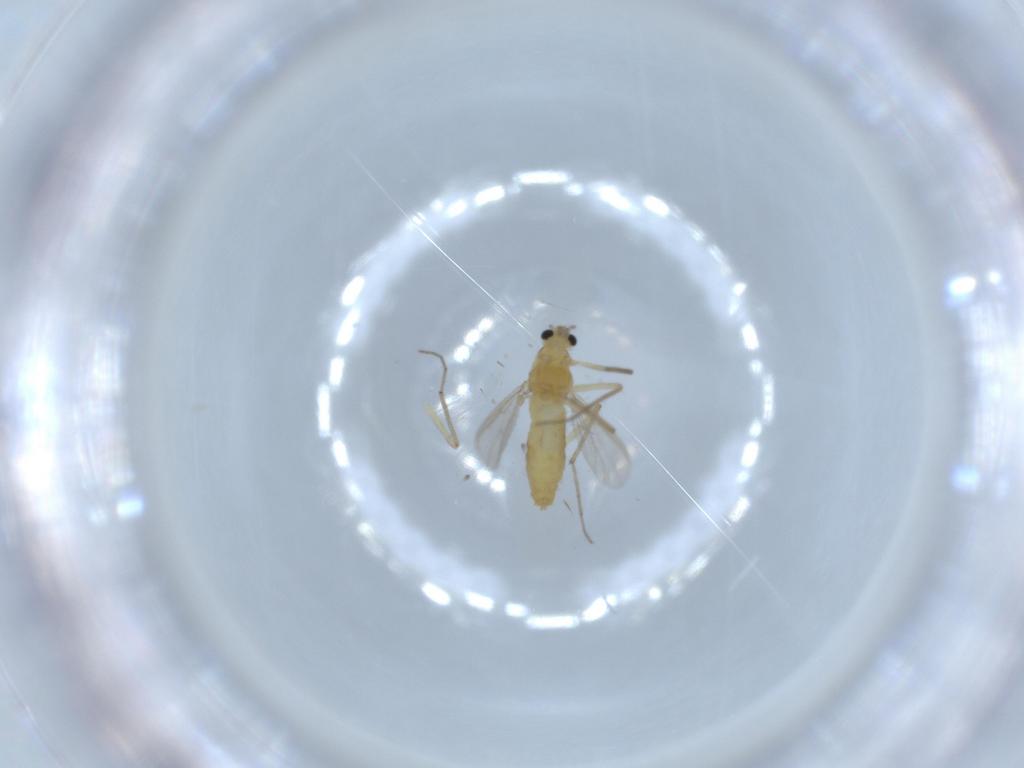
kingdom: Animalia
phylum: Arthropoda
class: Insecta
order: Diptera
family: Chironomidae
